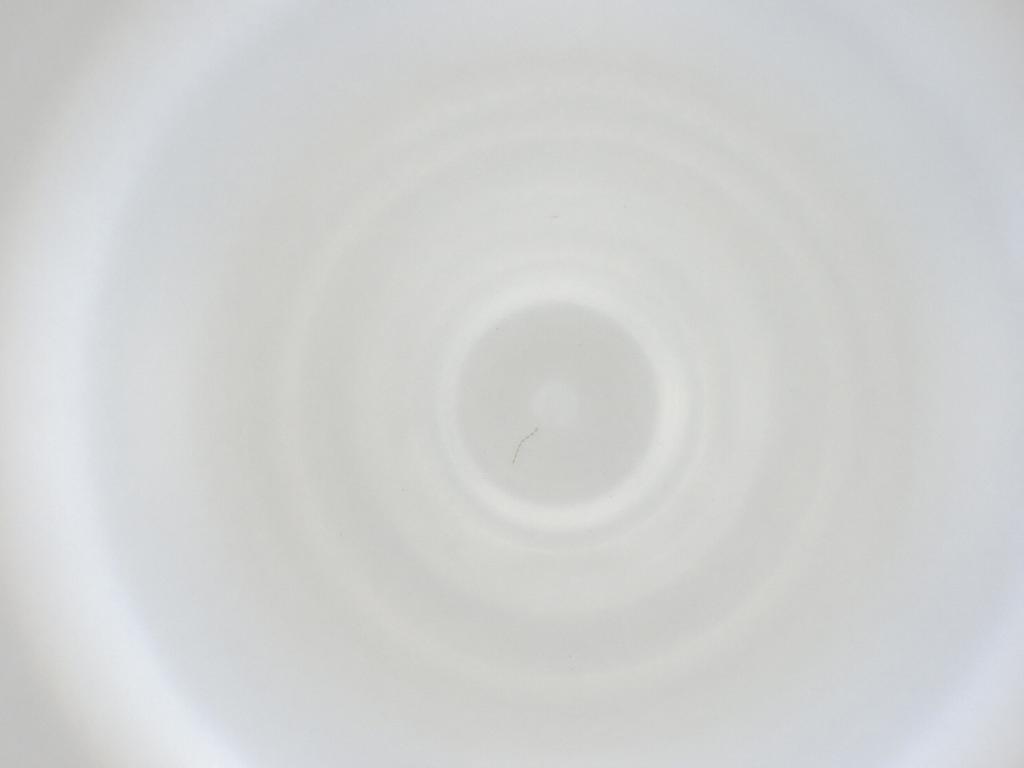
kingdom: Animalia
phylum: Arthropoda
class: Insecta
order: Diptera
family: Cecidomyiidae
